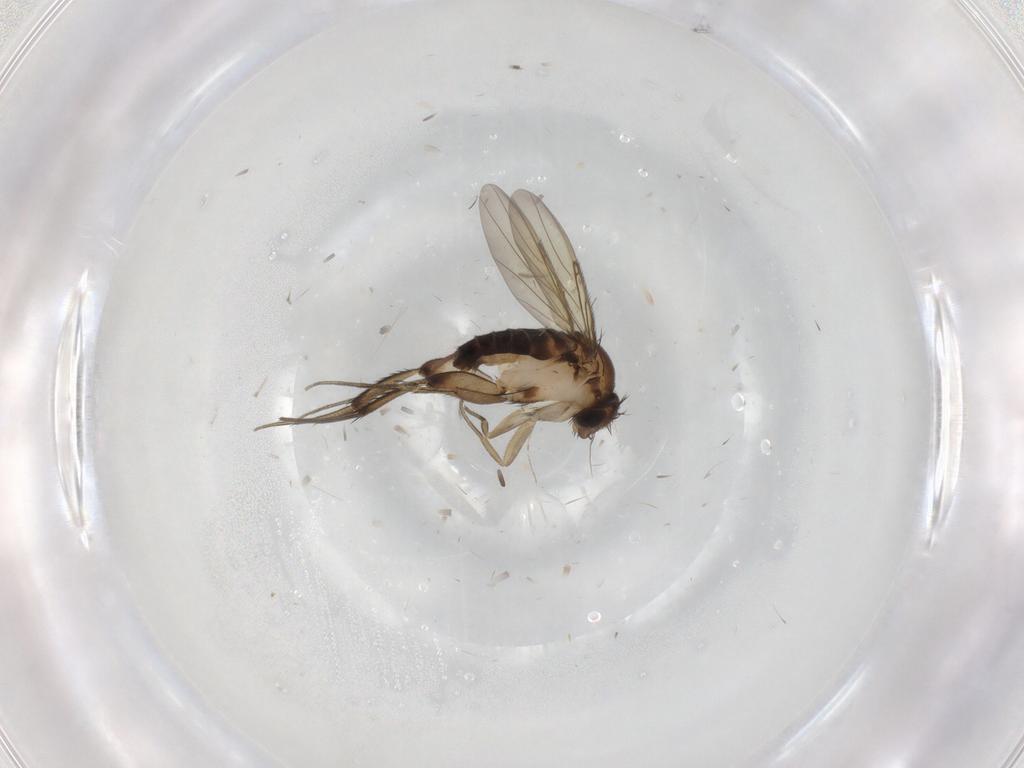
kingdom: Animalia
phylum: Arthropoda
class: Insecta
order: Diptera
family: Phoridae
